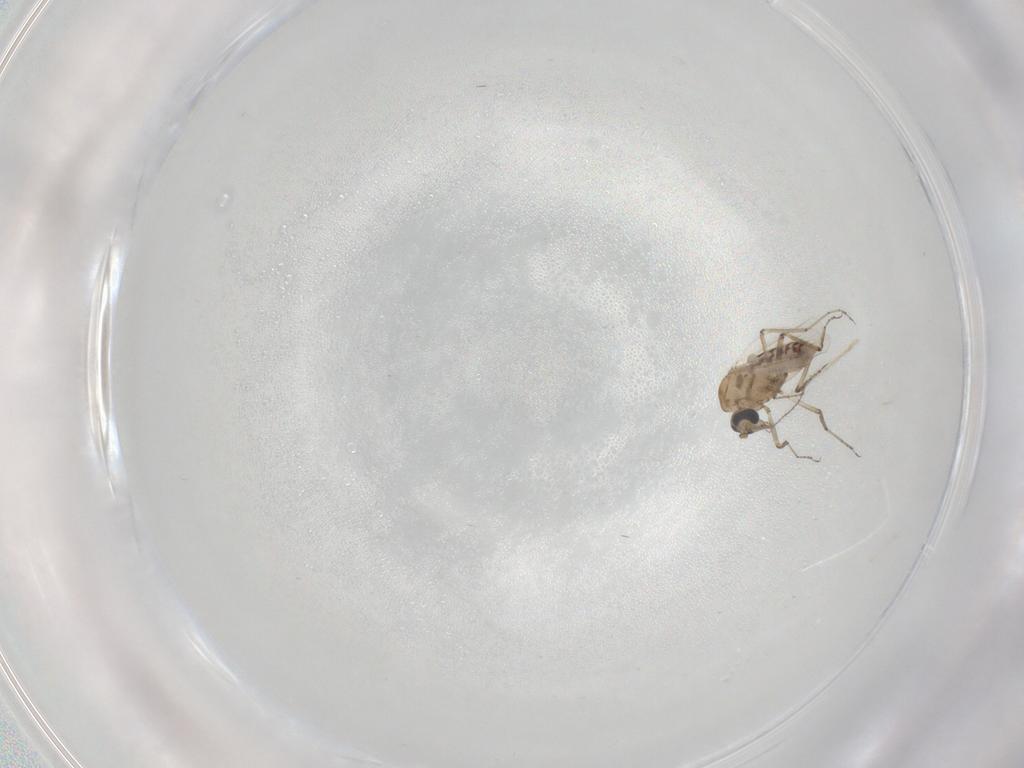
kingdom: Animalia
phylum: Arthropoda
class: Insecta
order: Diptera
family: Ceratopogonidae
